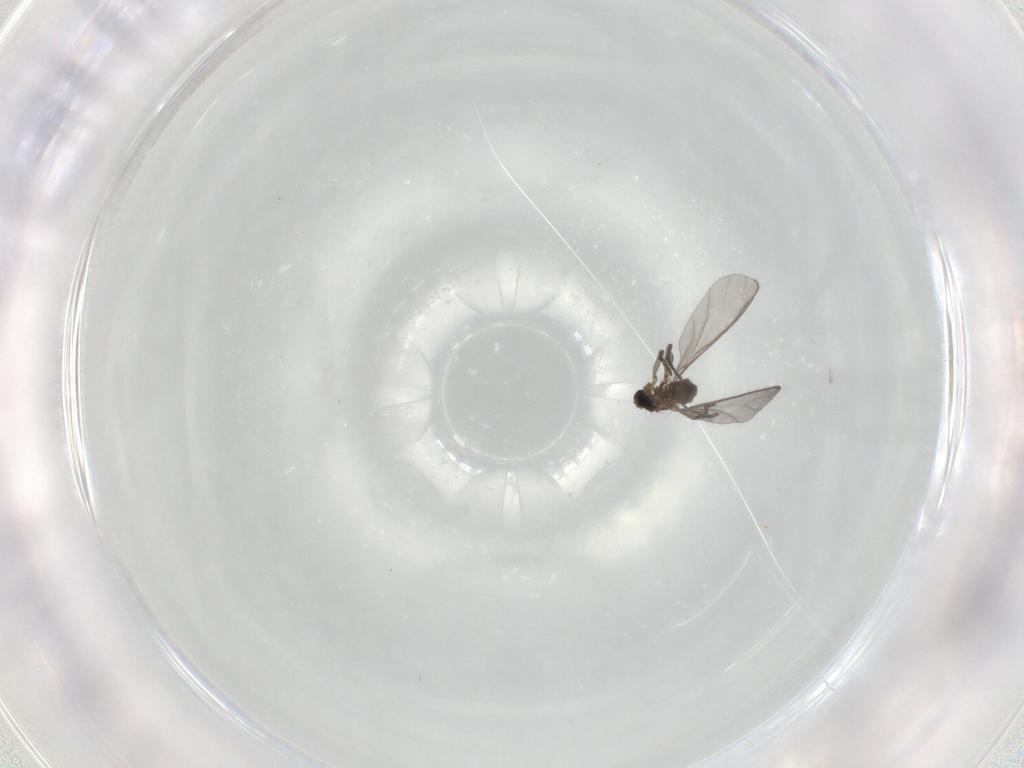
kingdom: Animalia
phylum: Arthropoda
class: Insecta
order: Diptera
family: Sciaridae
